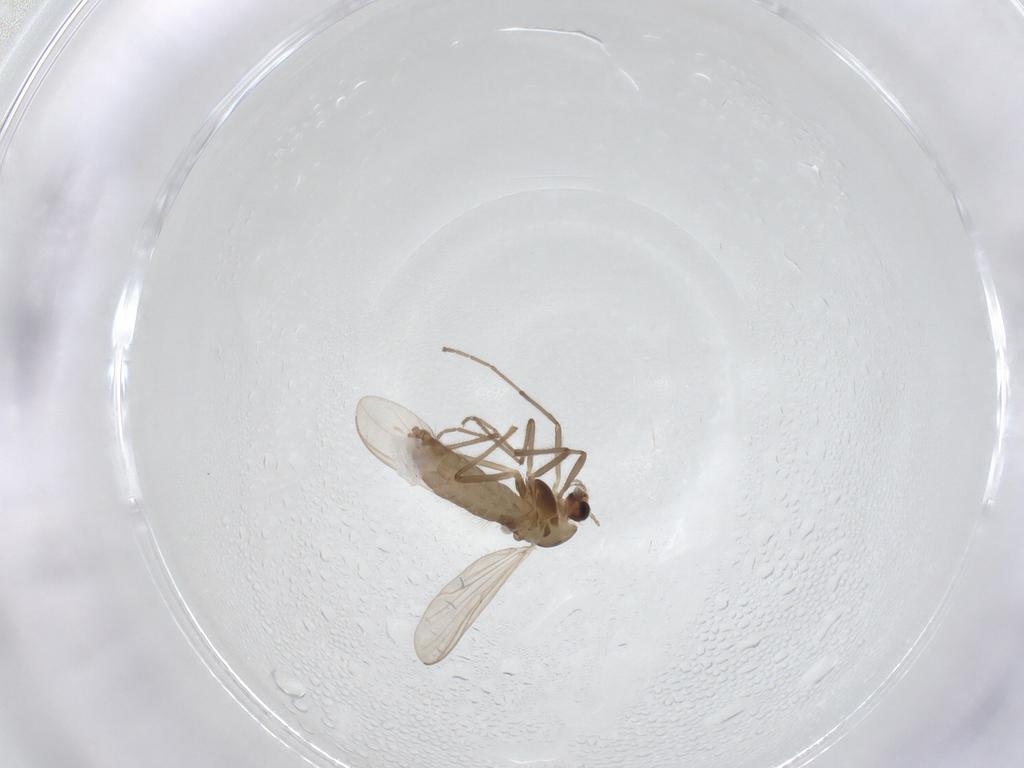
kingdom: Animalia
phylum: Arthropoda
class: Insecta
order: Diptera
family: Chironomidae
